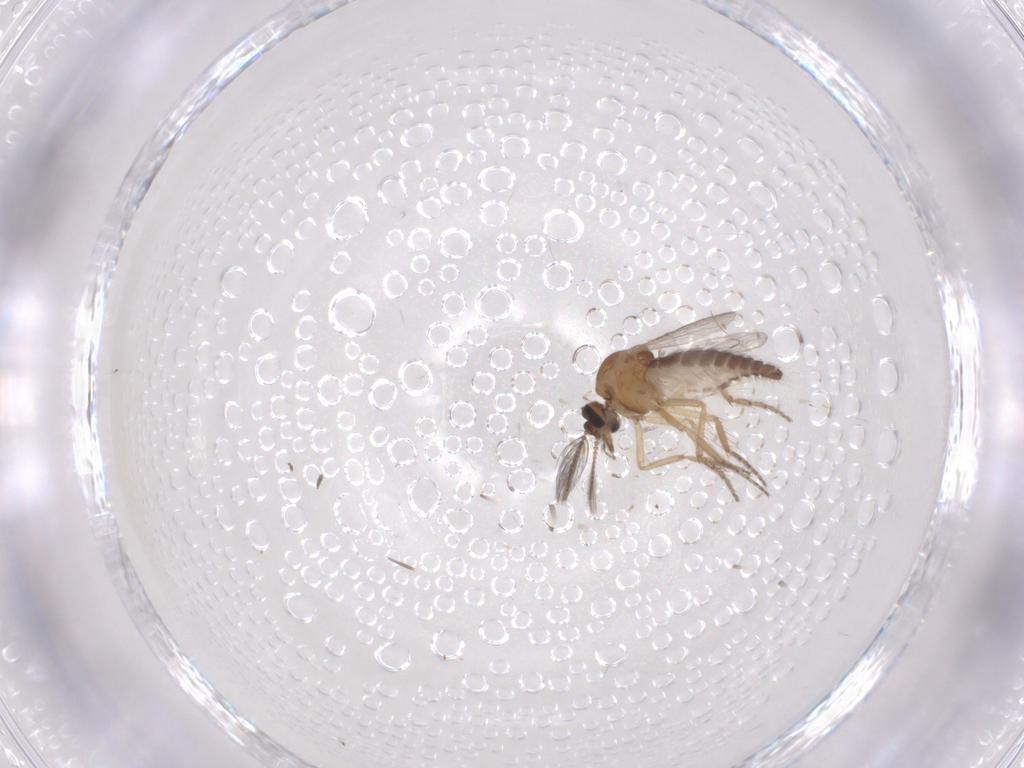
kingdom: Animalia
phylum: Arthropoda
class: Insecta
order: Diptera
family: Ceratopogonidae
